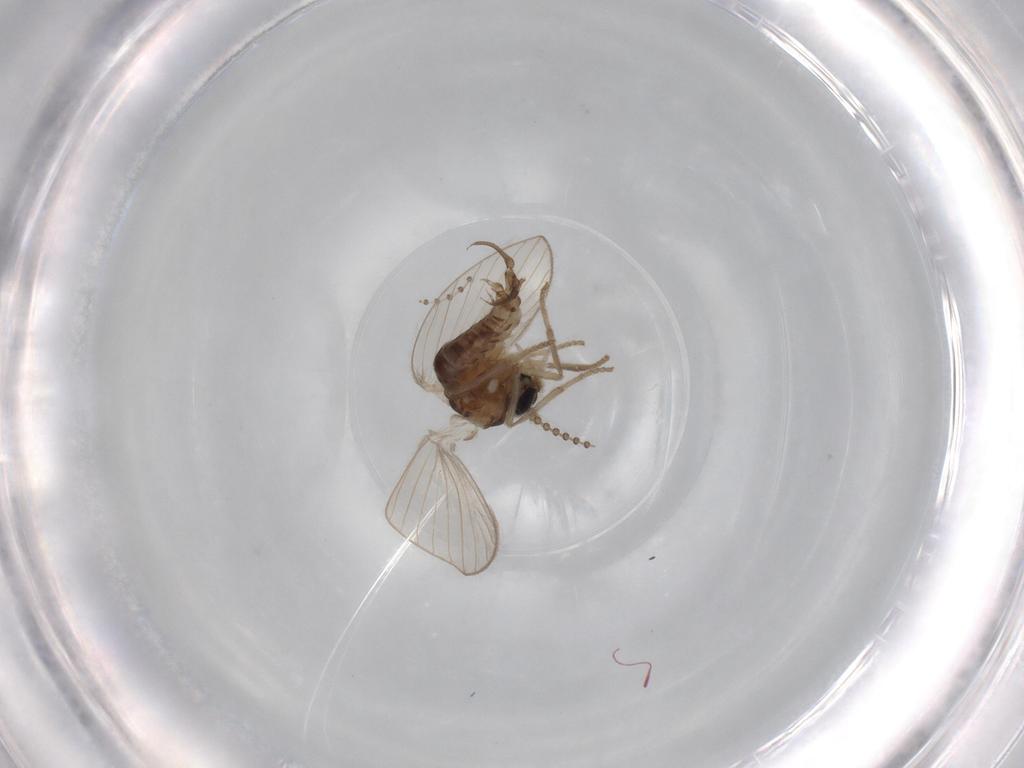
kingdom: Animalia
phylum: Arthropoda
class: Insecta
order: Diptera
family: Psychodidae
